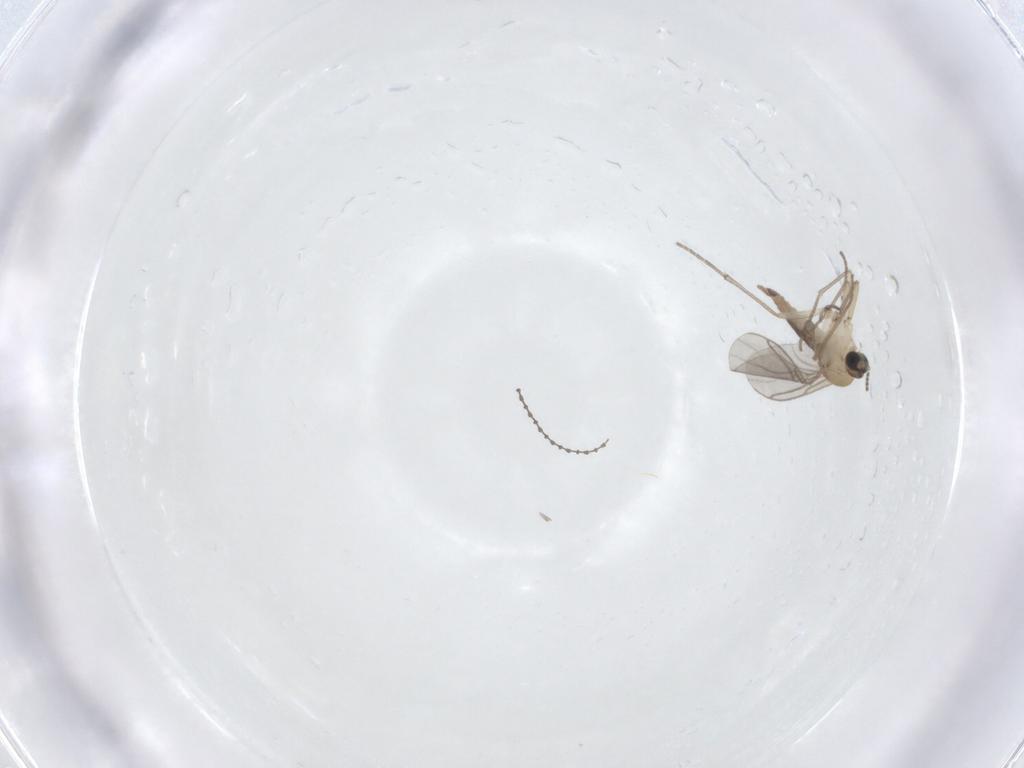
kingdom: Animalia
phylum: Arthropoda
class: Insecta
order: Diptera
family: Sciaridae
